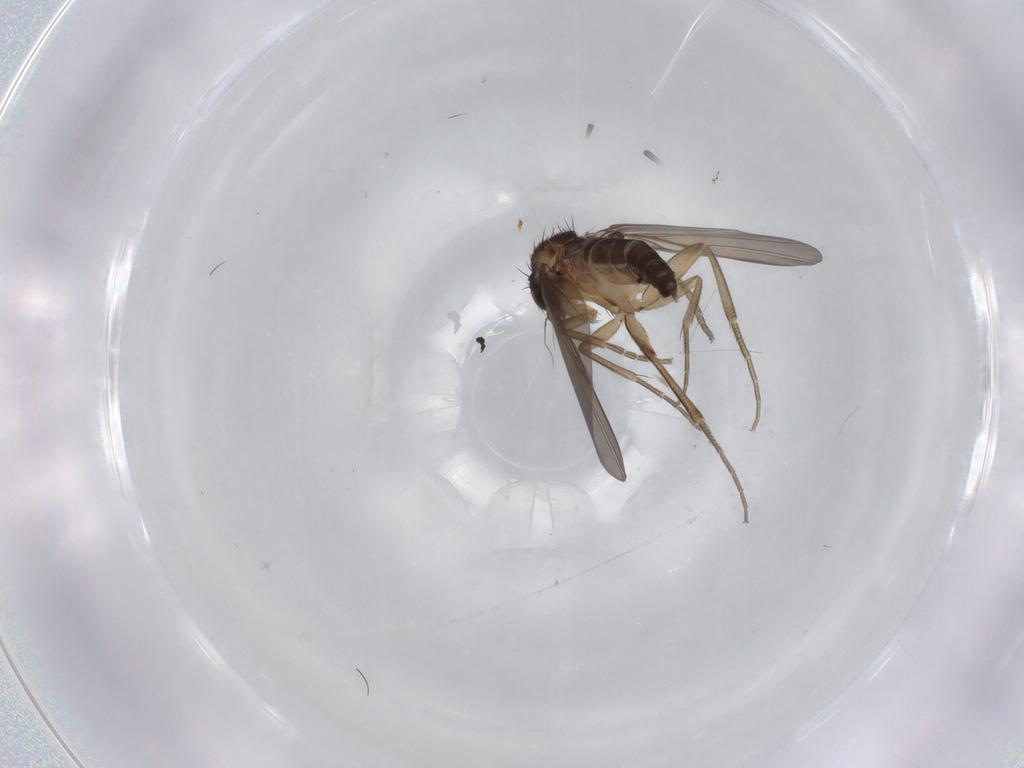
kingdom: Animalia
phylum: Arthropoda
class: Insecta
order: Diptera
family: Phoridae
